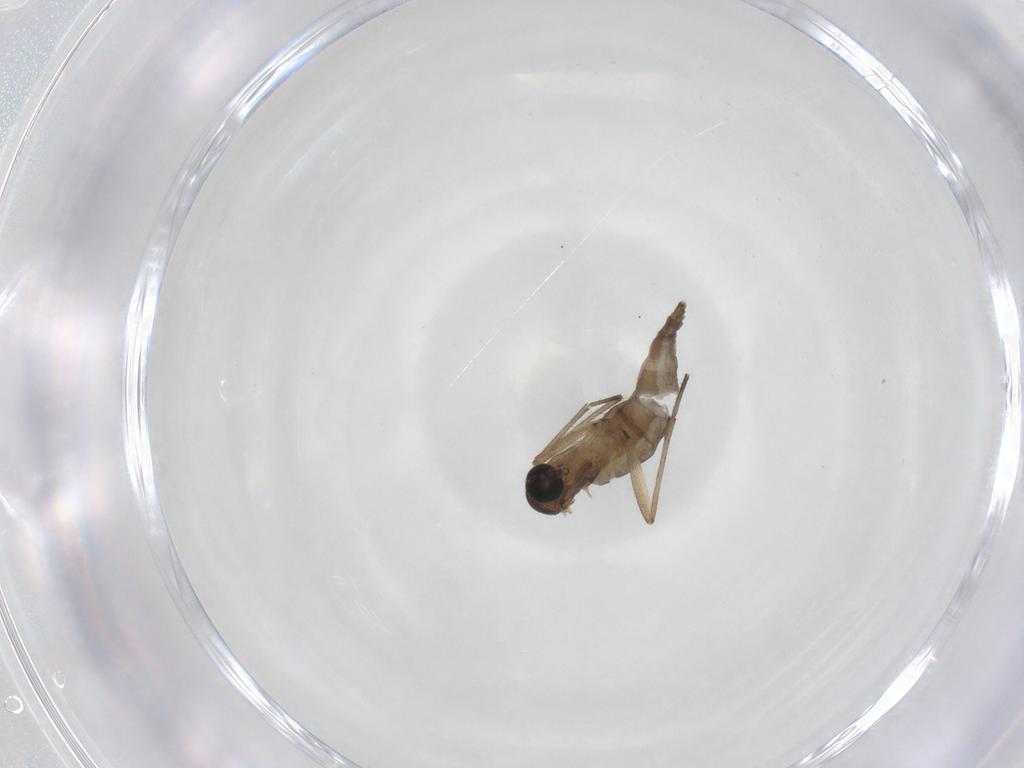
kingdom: Animalia
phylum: Arthropoda
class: Insecta
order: Diptera
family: Sciaridae
